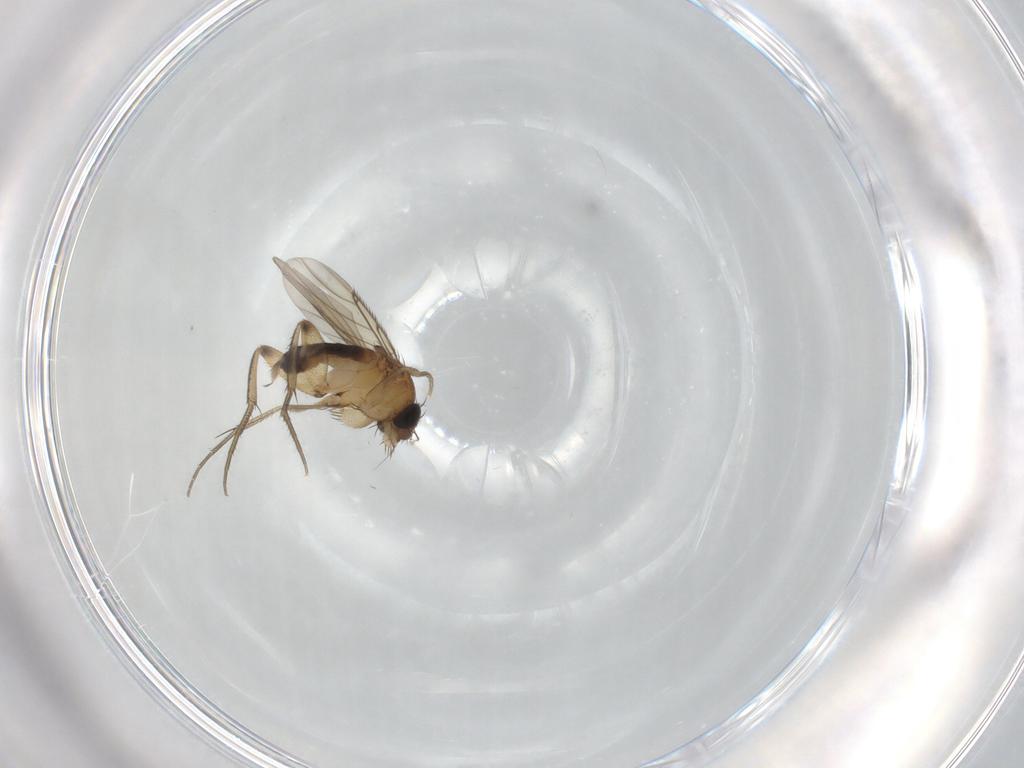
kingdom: Animalia
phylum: Arthropoda
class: Insecta
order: Diptera
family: Phoridae
